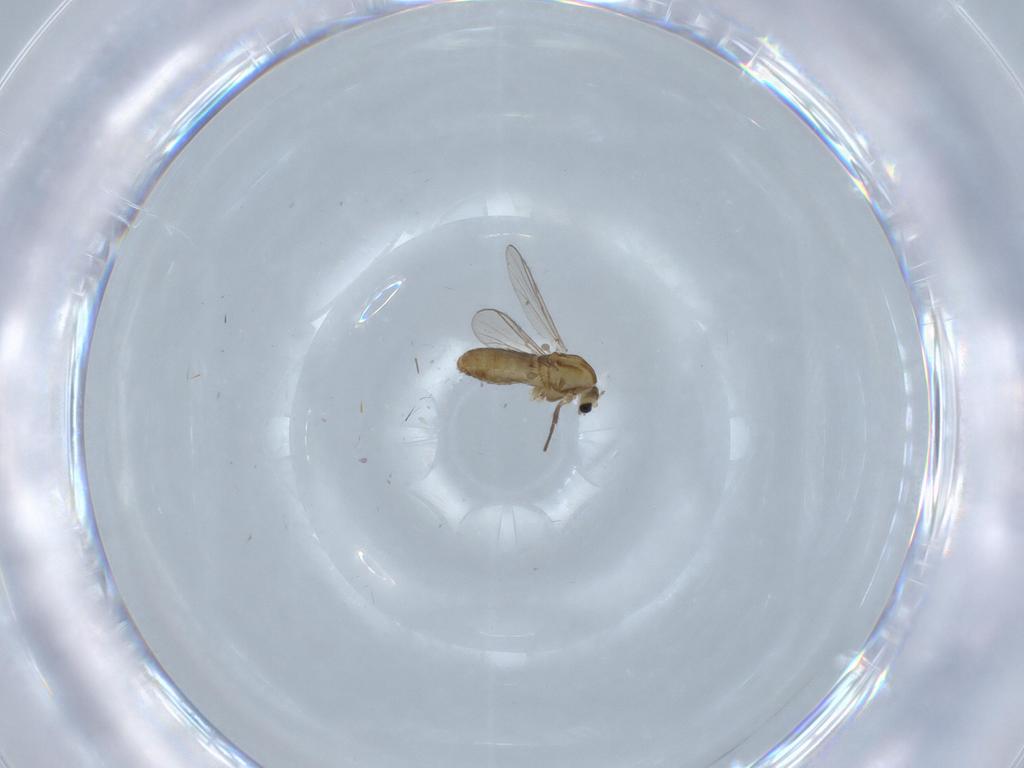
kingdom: Animalia
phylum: Arthropoda
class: Insecta
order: Diptera
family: Chironomidae
